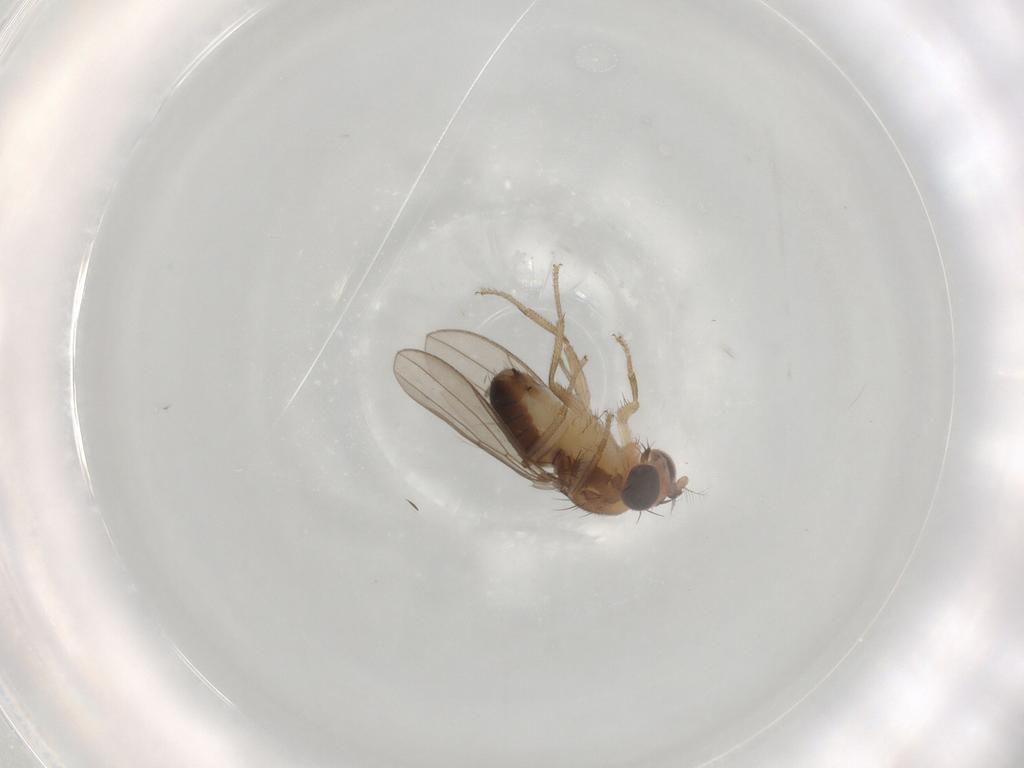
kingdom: Animalia
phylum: Arthropoda
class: Insecta
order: Diptera
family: Drosophilidae
